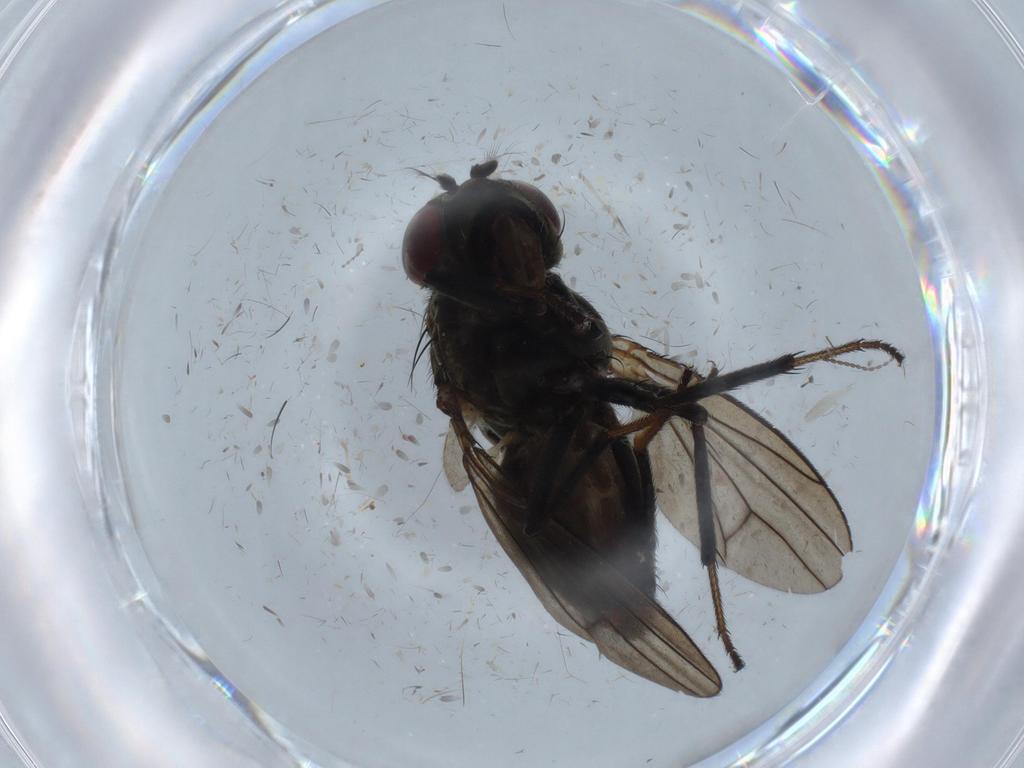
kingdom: Animalia
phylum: Arthropoda
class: Insecta
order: Diptera
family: Ephydridae
